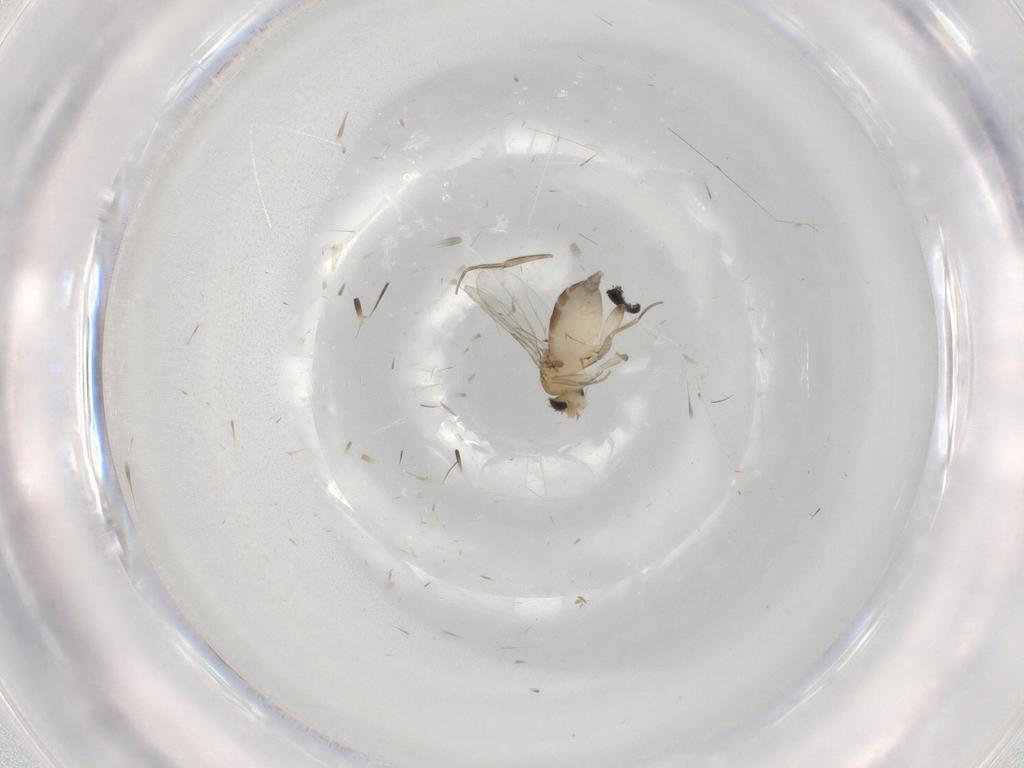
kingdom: Animalia
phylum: Arthropoda
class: Insecta
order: Diptera
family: Phoridae
